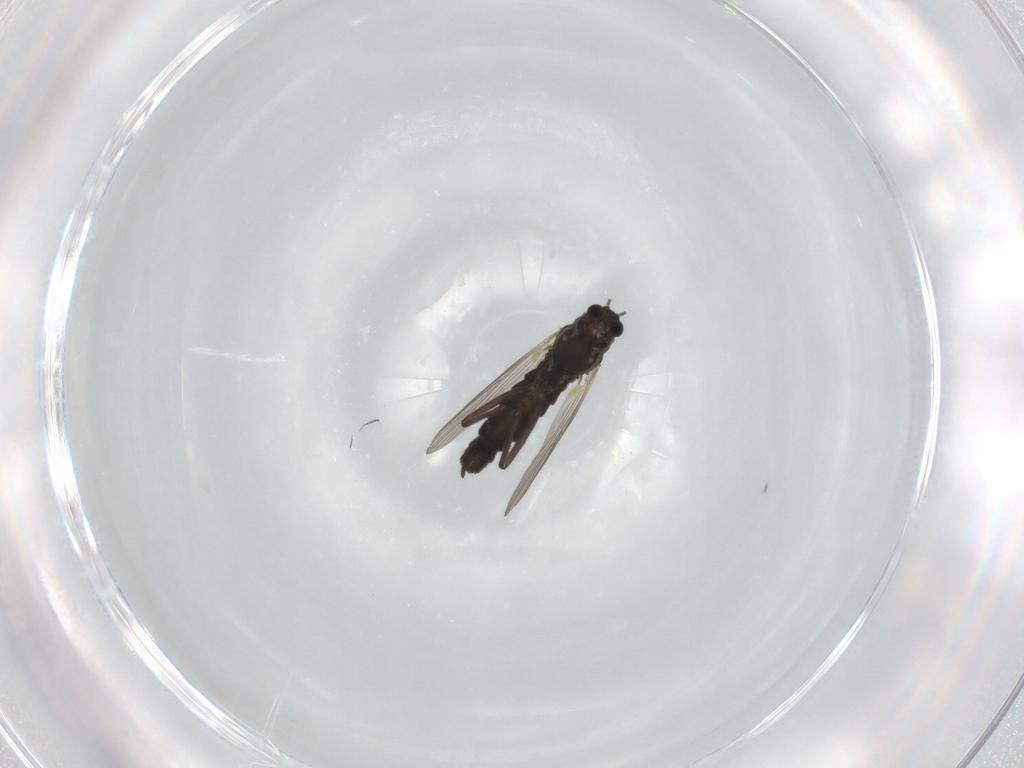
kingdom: Animalia
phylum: Arthropoda
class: Insecta
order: Diptera
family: Chironomidae
